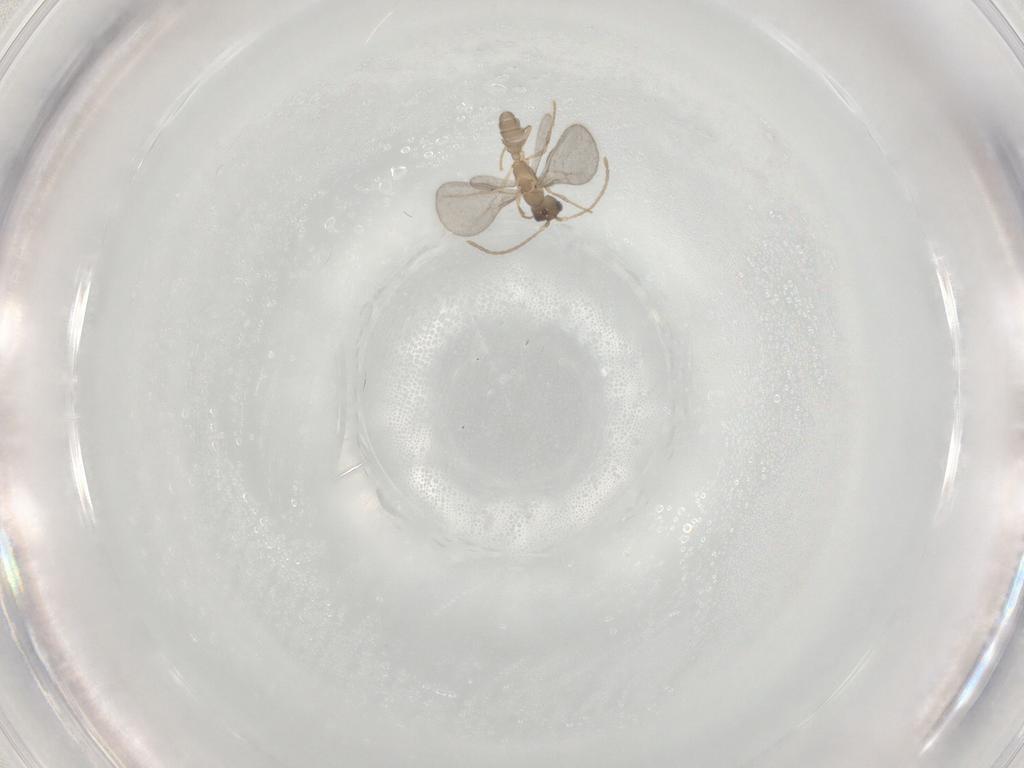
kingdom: Animalia
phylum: Arthropoda
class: Insecta
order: Hymenoptera
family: Formicidae
